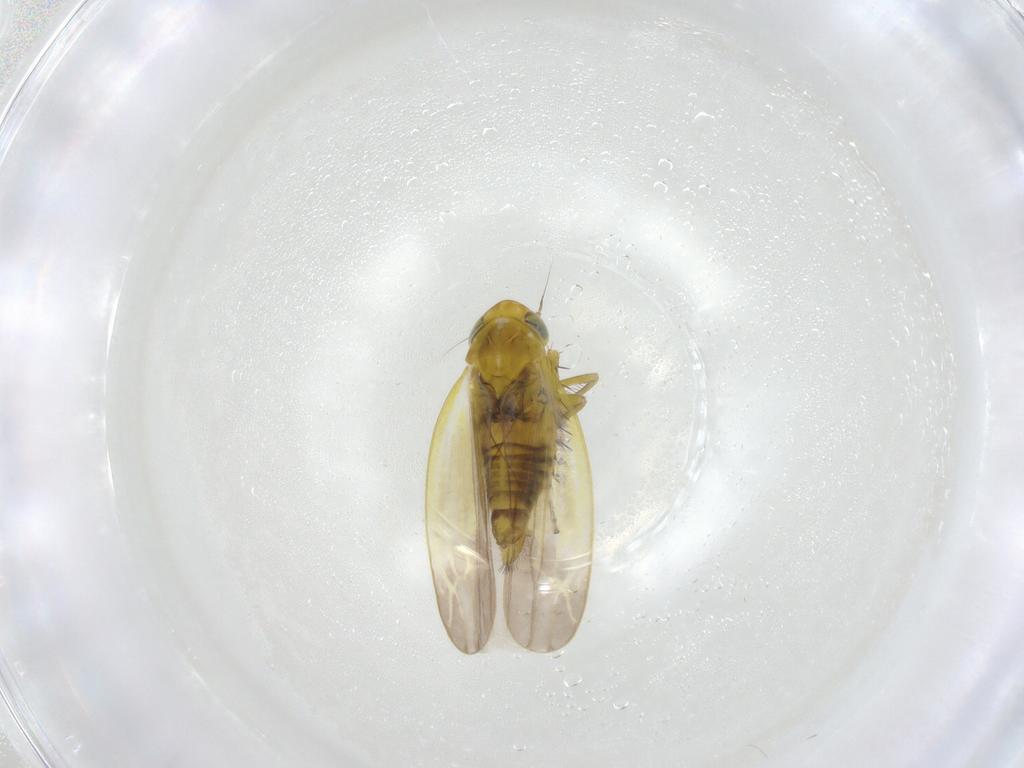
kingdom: Animalia
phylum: Arthropoda
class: Insecta
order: Hemiptera
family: Cicadellidae
